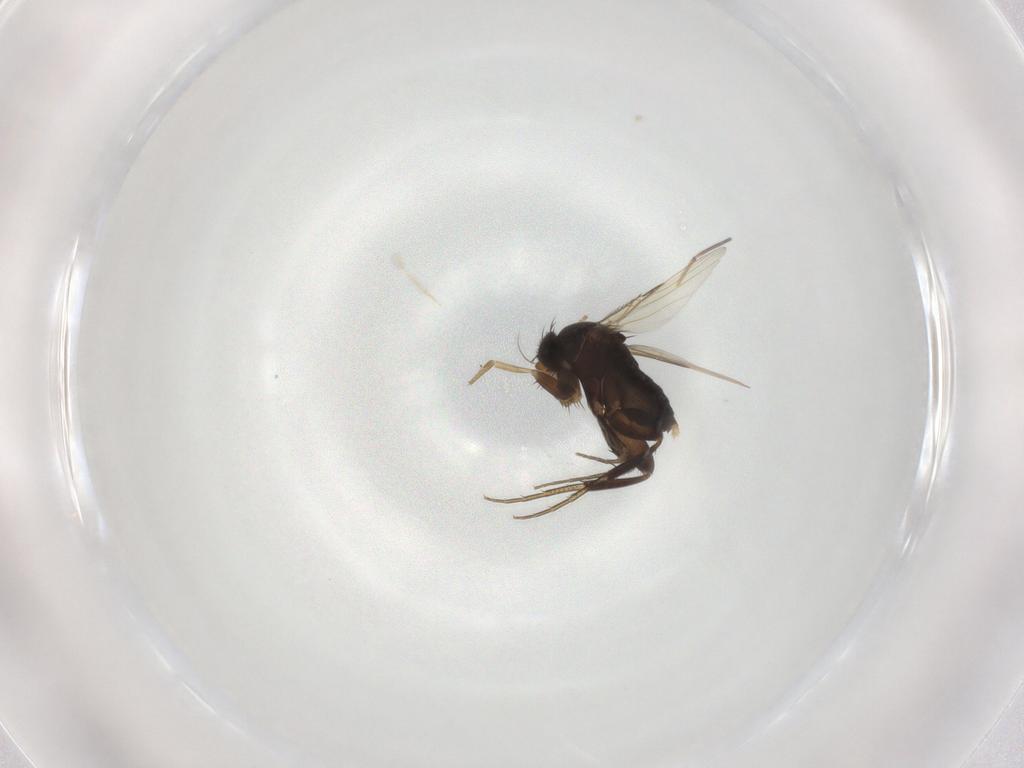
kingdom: Animalia
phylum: Arthropoda
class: Insecta
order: Diptera
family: Phoridae
